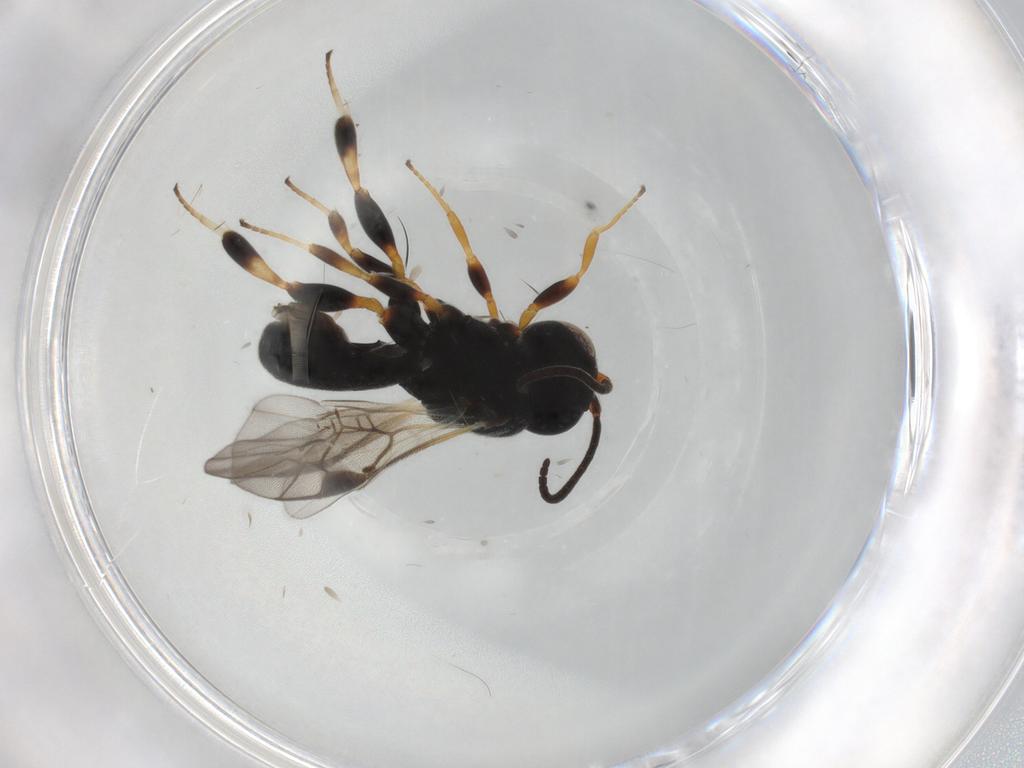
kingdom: Animalia
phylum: Arthropoda
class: Insecta
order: Hymenoptera
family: Braconidae
